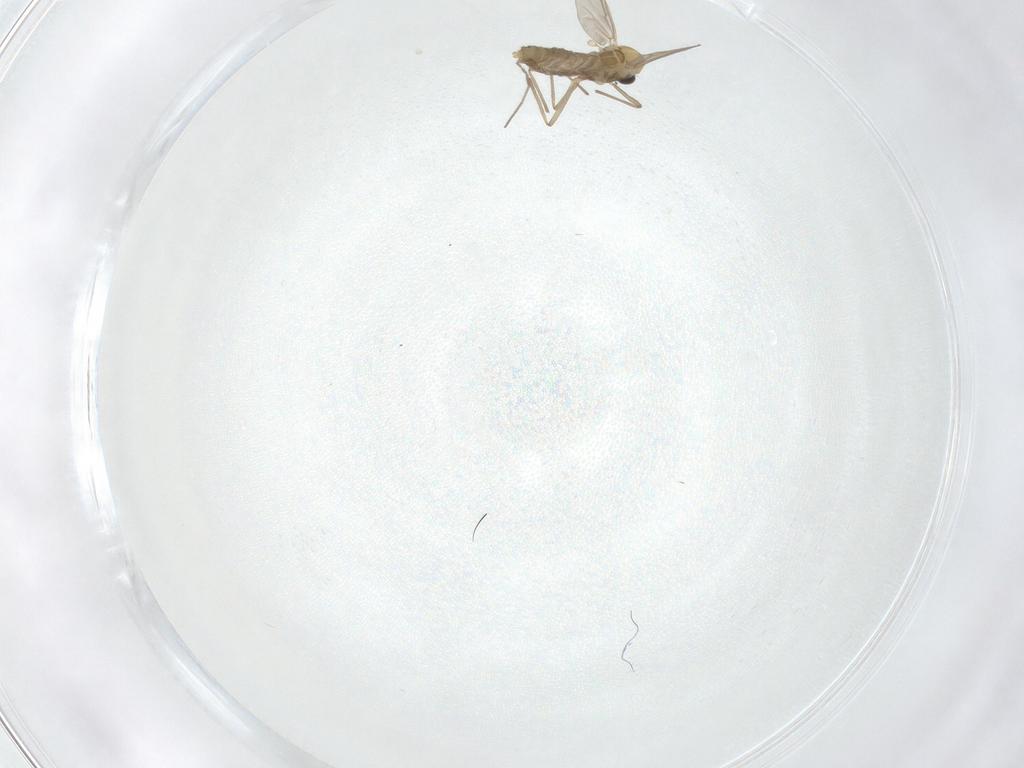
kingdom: Animalia
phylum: Arthropoda
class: Insecta
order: Diptera
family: Chironomidae
